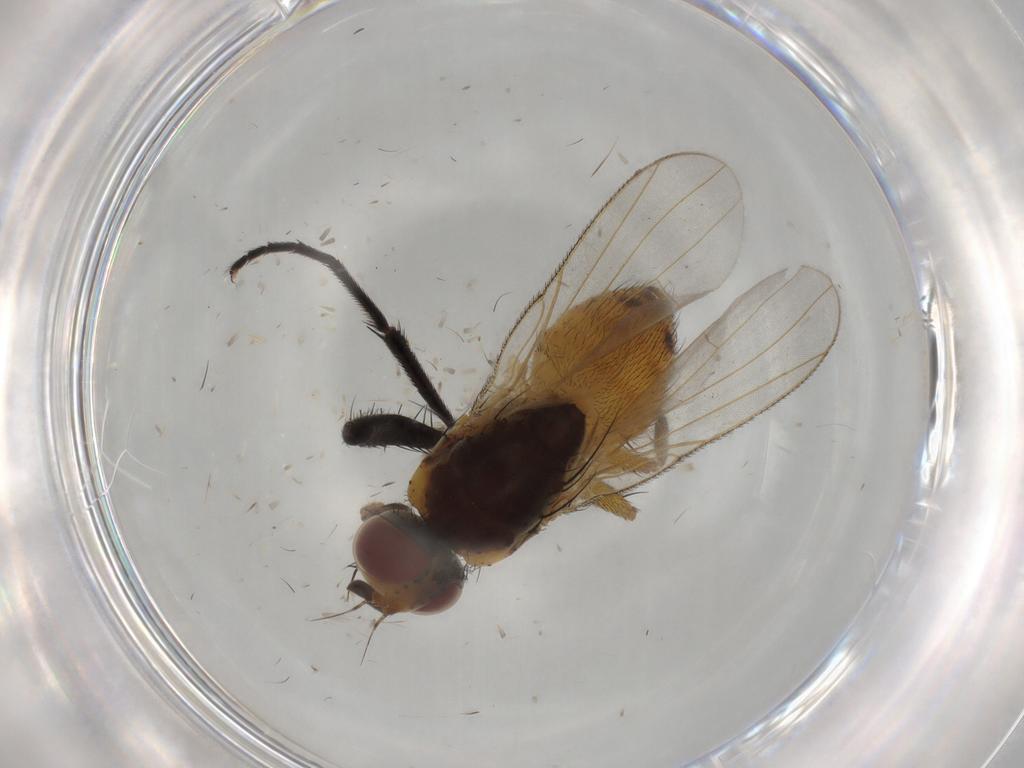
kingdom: Animalia
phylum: Arthropoda
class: Insecta
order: Diptera
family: Muscidae
